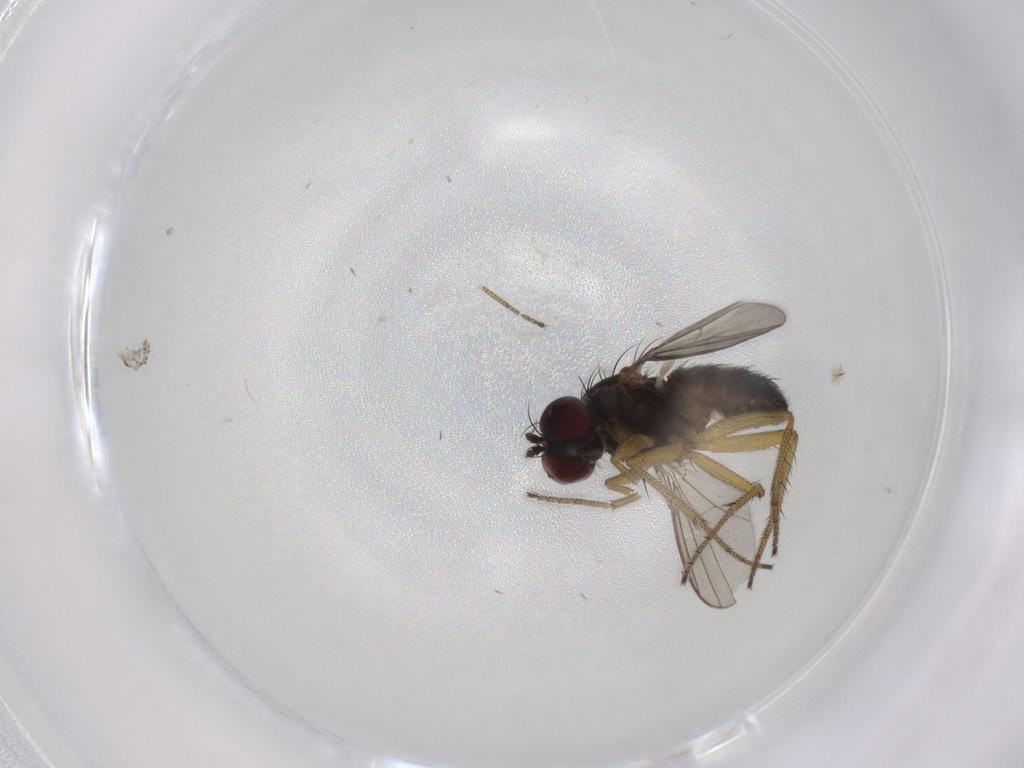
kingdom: Animalia
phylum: Arthropoda
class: Insecta
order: Diptera
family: Dolichopodidae
